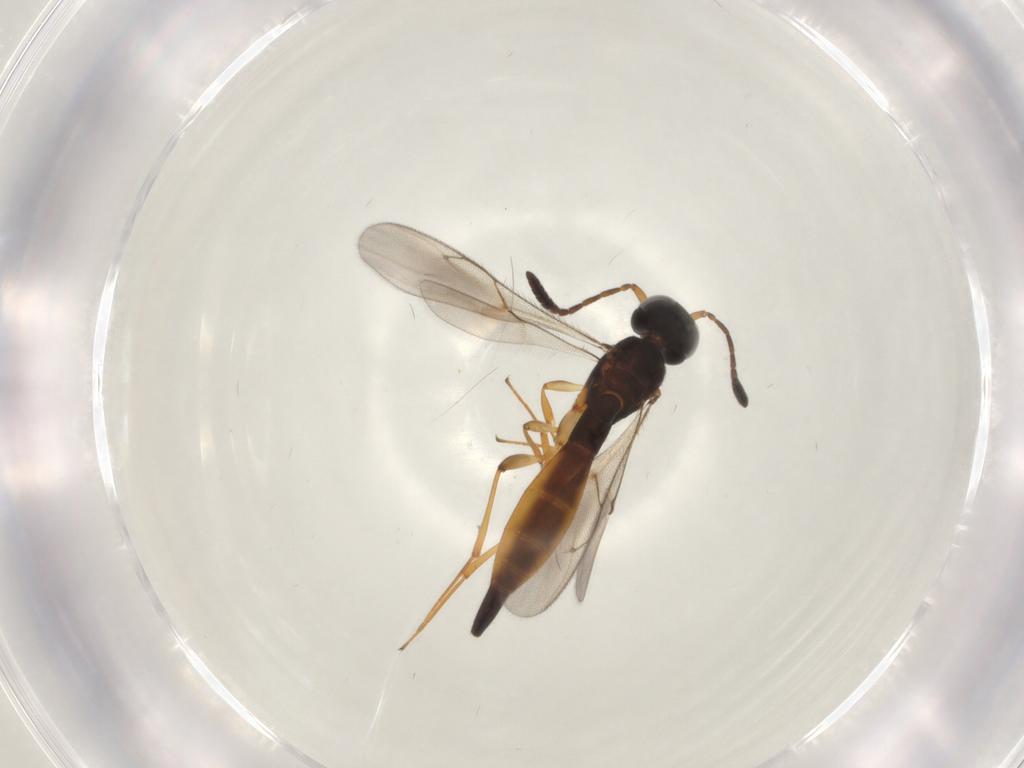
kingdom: Animalia
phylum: Arthropoda
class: Insecta
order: Hymenoptera
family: Scelionidae
